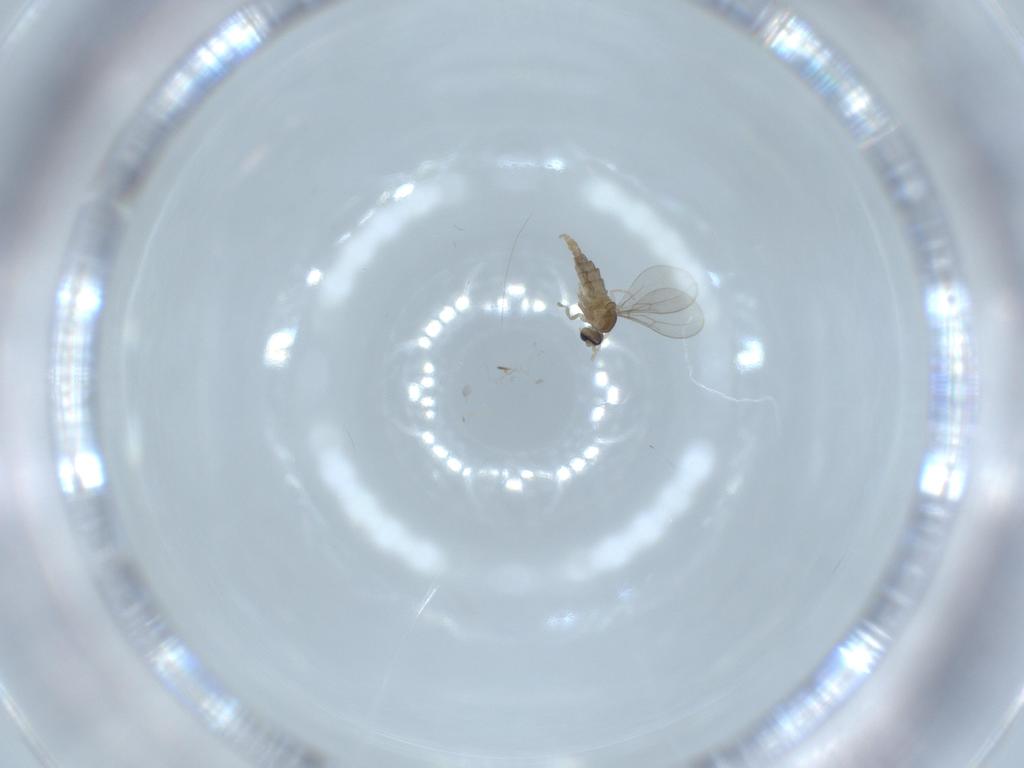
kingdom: Animalia
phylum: Arthropoda
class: Insecta
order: Diptera
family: Cecidomyiidae
